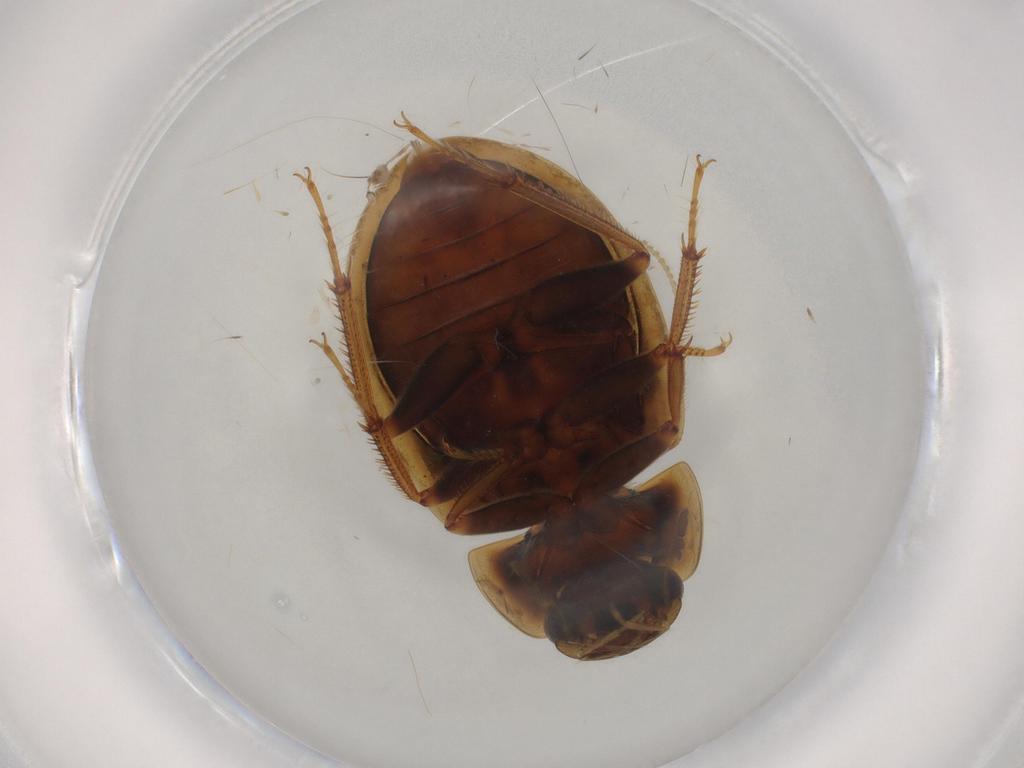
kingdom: Animalia
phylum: Arthropoda
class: Insecta
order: Coleoptera
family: Hydrophilidae
